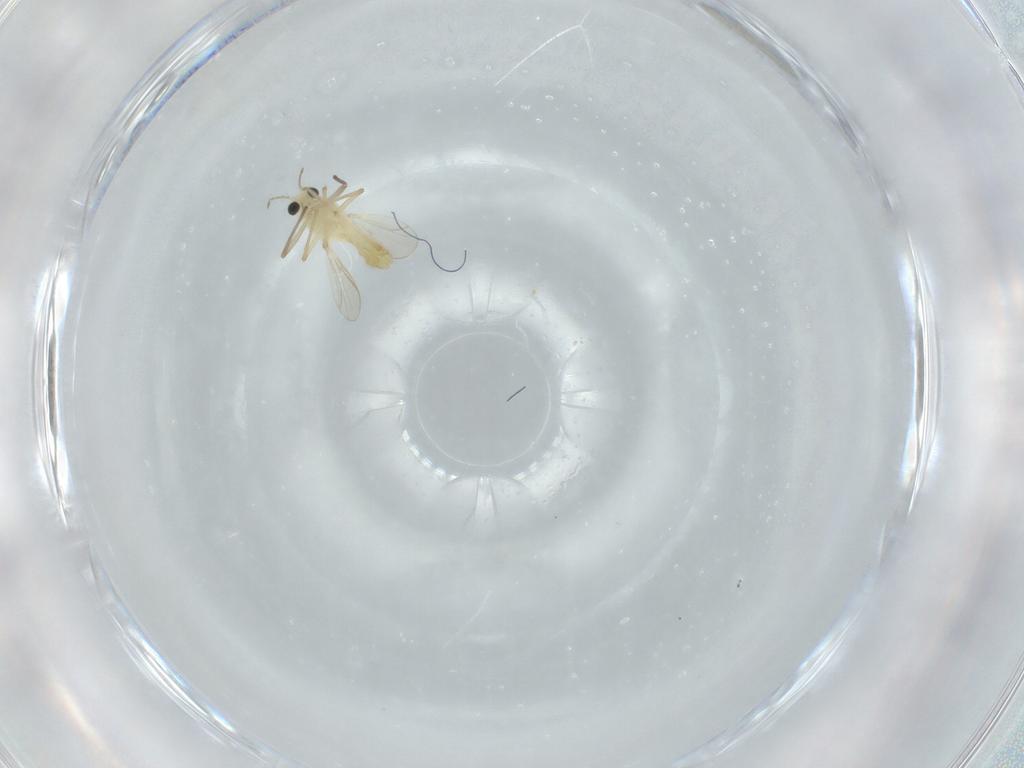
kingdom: Animalia
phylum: Arthropoda
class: Insecta
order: Diptera
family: Chironomidae
